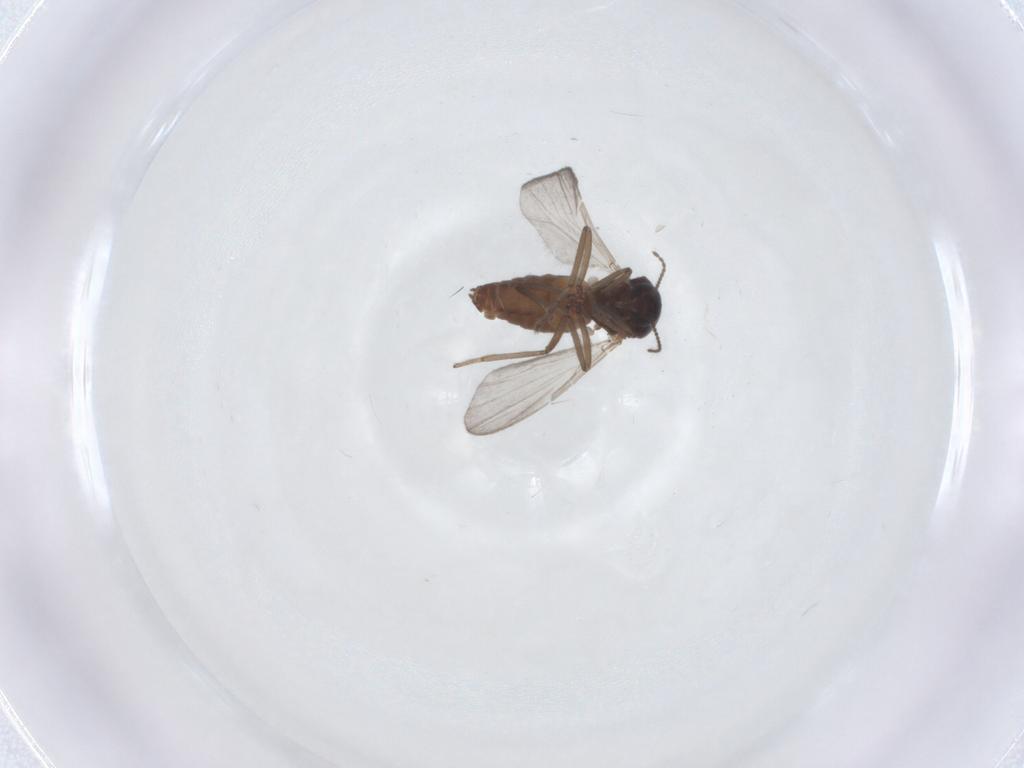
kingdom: Animalia
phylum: Arthropoda
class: Insecta
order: Diptera
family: Ceratopogonidae
